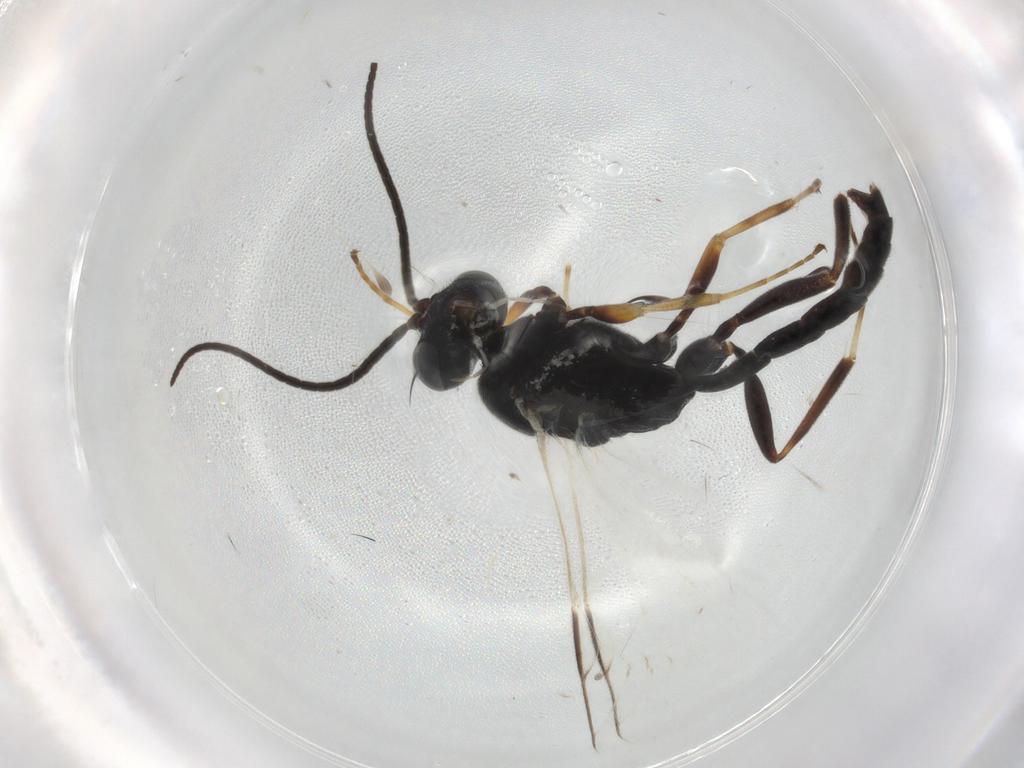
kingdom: Animalia
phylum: Arthropoda
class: Insecta
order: Hymenoptera
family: Ichneumonidae
